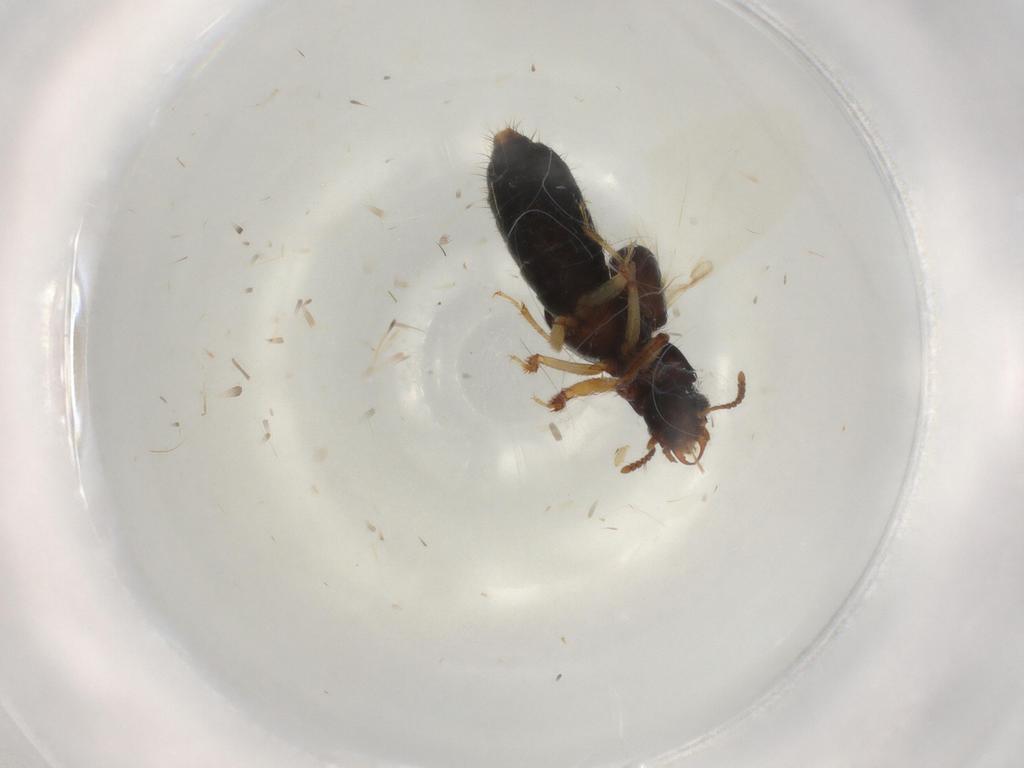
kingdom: Animalia
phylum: Arthropoda
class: Insecta
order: Coleoptera
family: Staphylinidae
